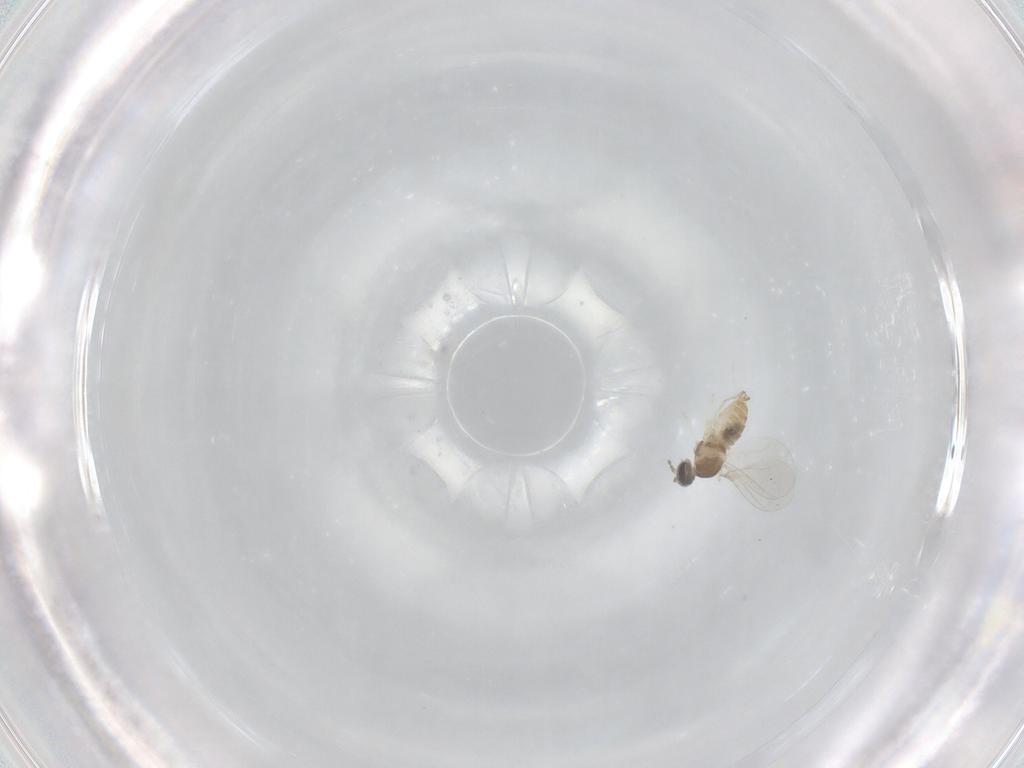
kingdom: Animalia
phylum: Arthropoda
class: Insecta
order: Diptera
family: Cecidomyiidae
